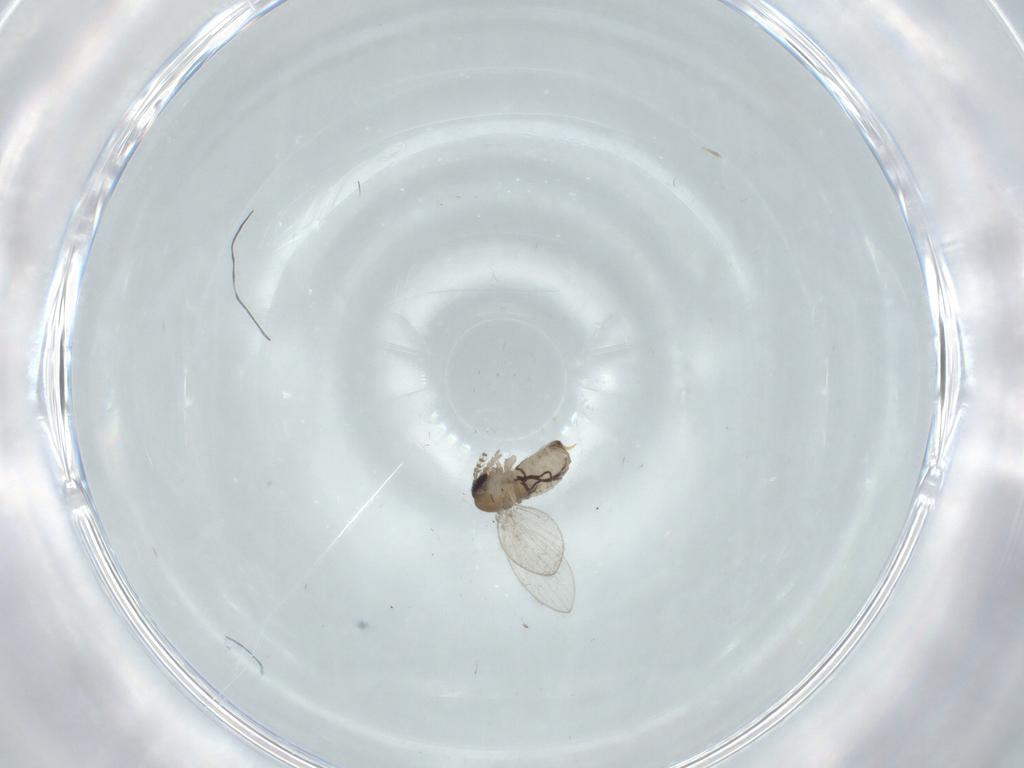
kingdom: Animalia
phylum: Arthropoda
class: Insecta
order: Diptera
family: Psychodidae
